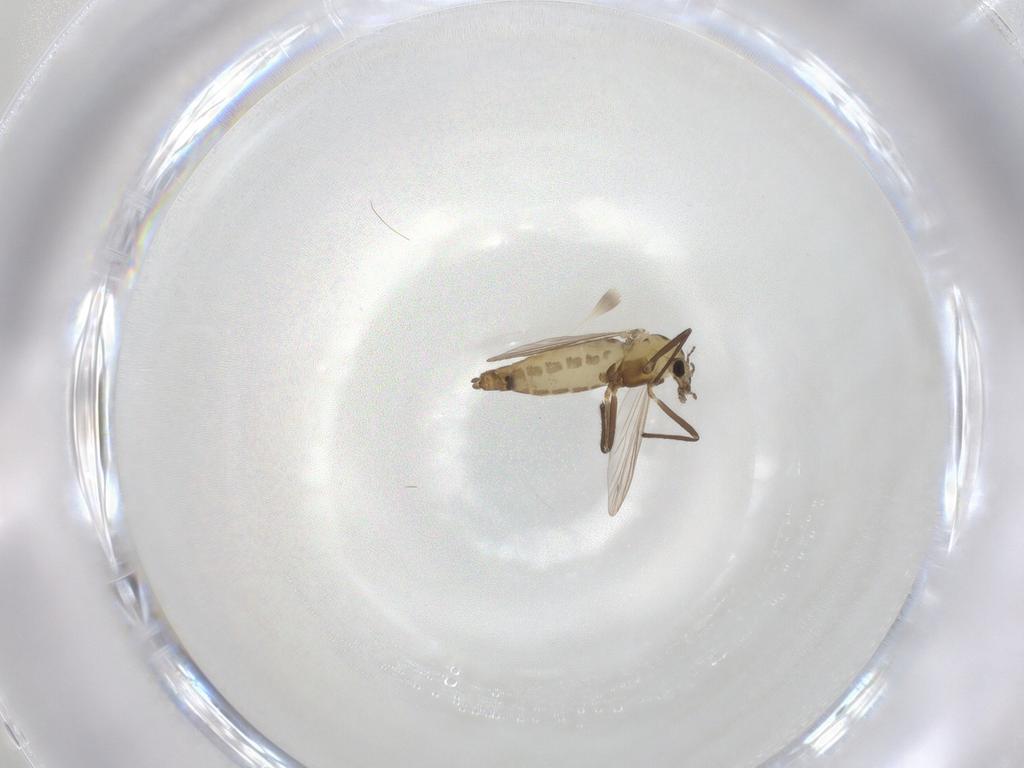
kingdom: Animalia
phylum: Arthropoda
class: Insecta
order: Diptera
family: Chironomidae
